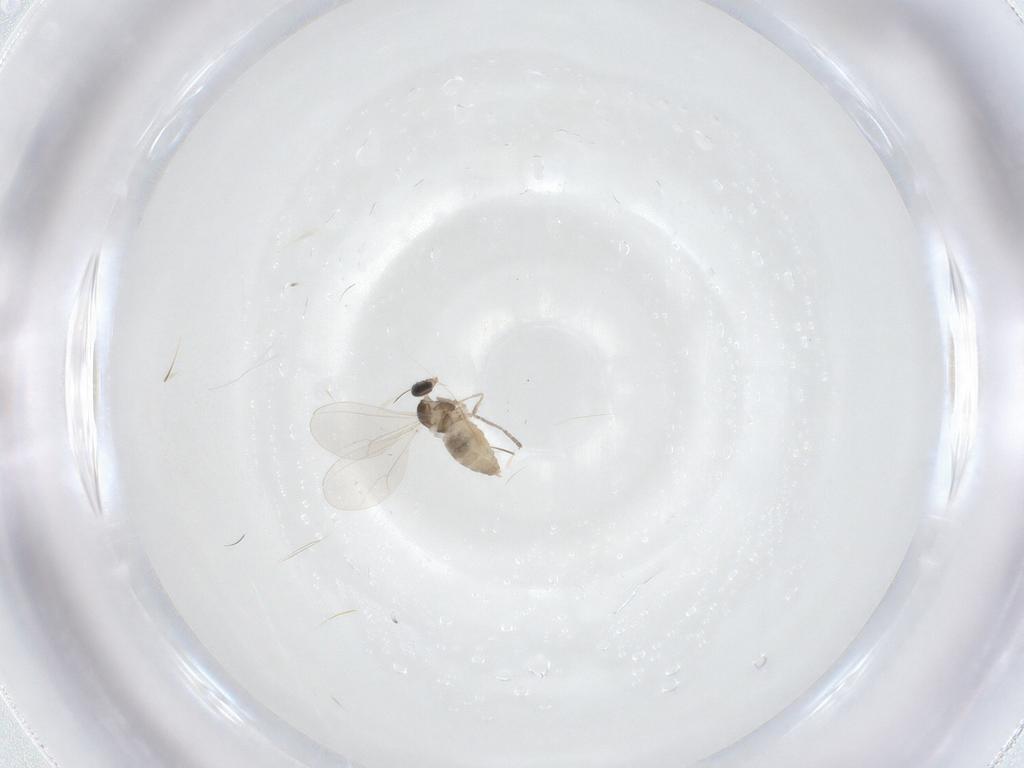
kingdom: Animalia
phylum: Arthropoda
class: Insecta
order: Diptera
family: Cecidomyiidae
